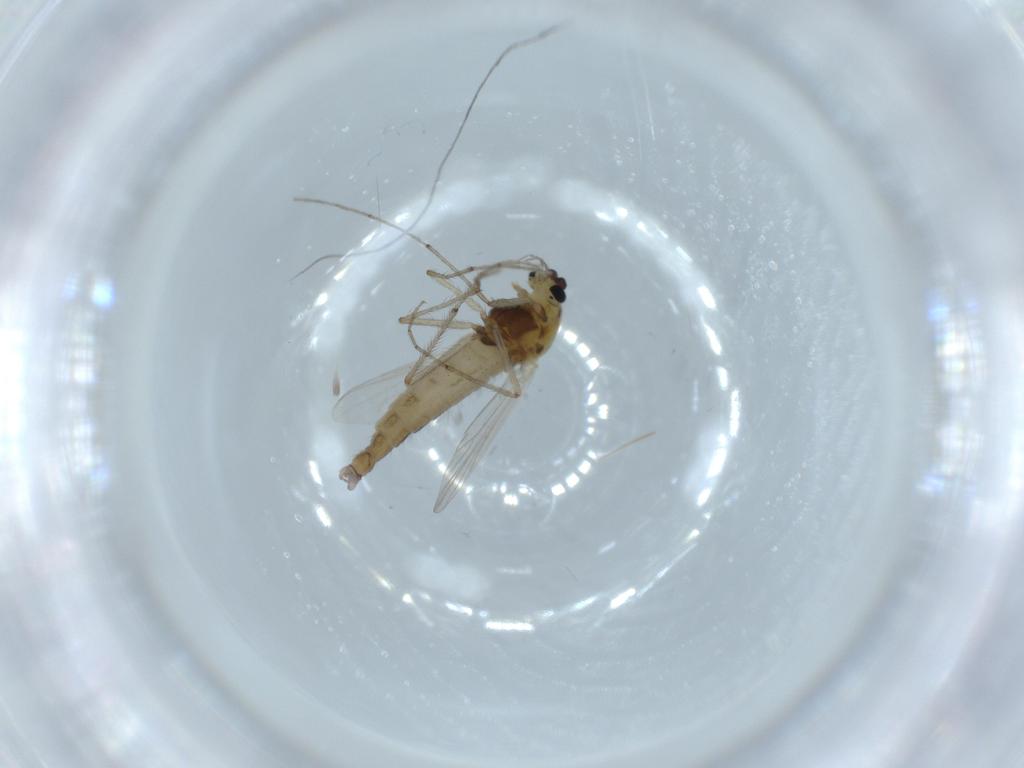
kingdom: Animalia
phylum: Arthropoda
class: Insecta
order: Diptera
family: Chironomidae
